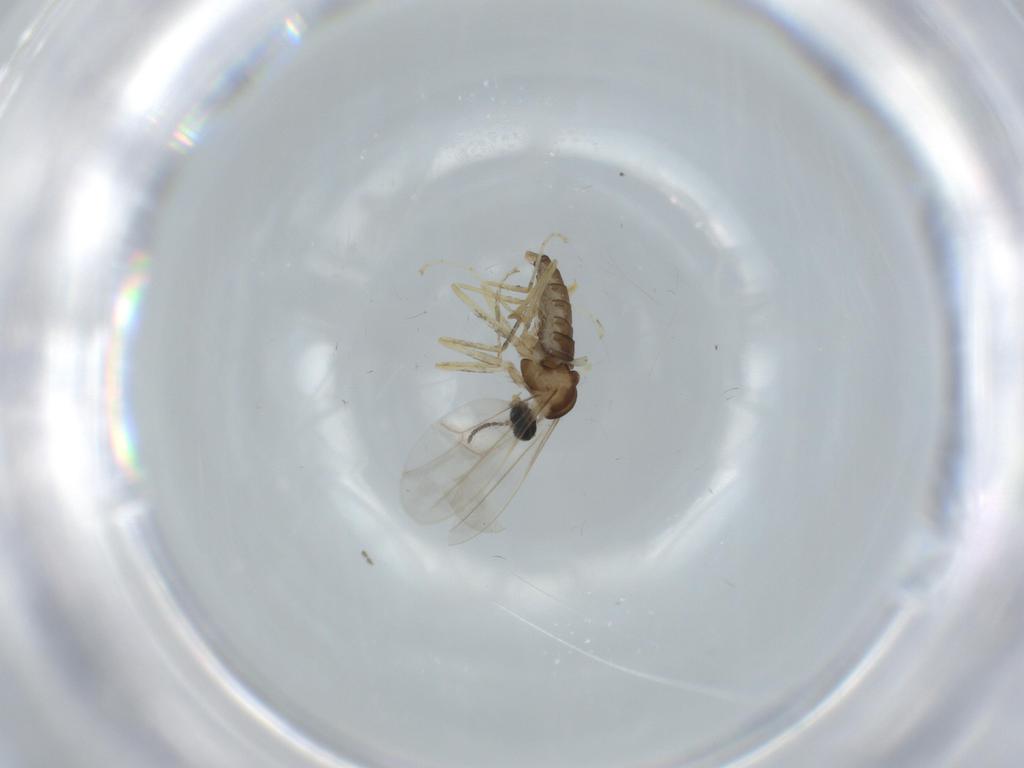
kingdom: Animalia
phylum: Arthropoda
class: Insecta
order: Diptera
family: Cecidomyiidae
